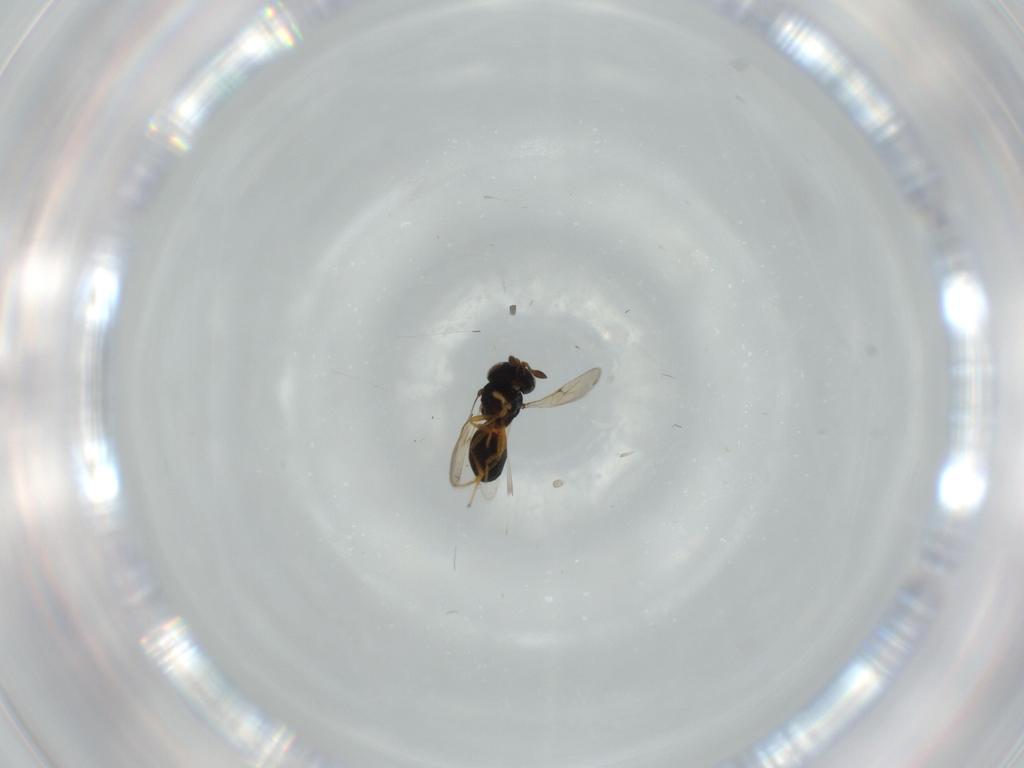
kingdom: Animalia
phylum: Arthropoda
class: Insecta
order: Hymenoptera
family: Scelionidae
